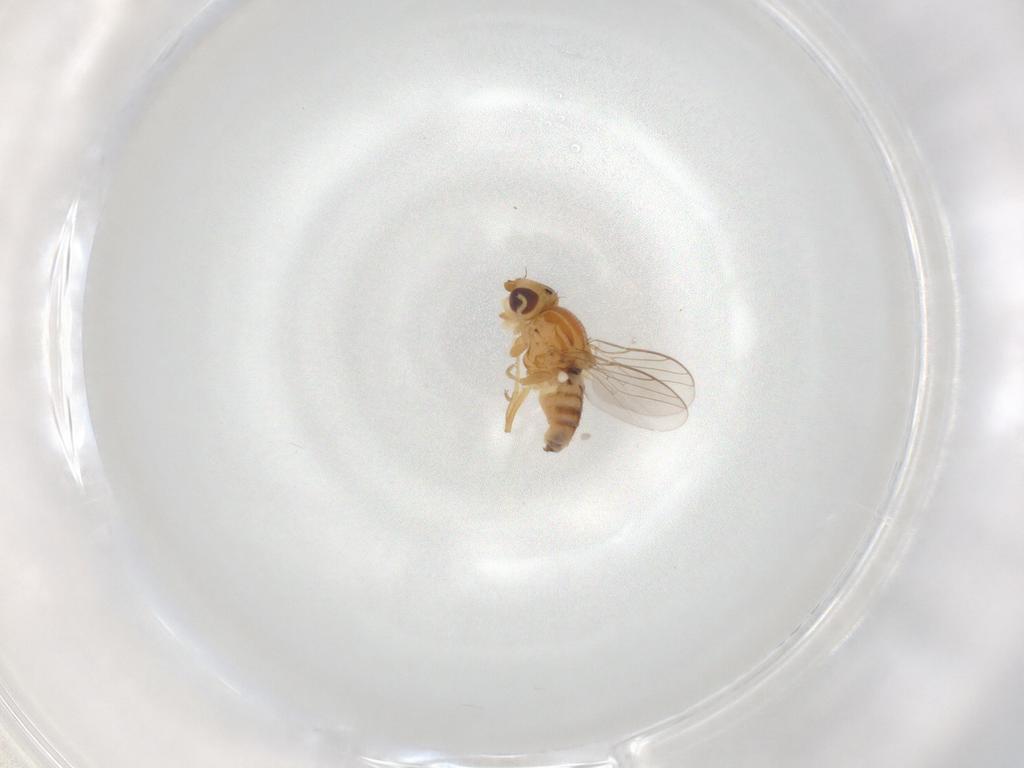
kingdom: Animalia
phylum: Arthropoda
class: Insecta
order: Diptera
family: Chloropidae
